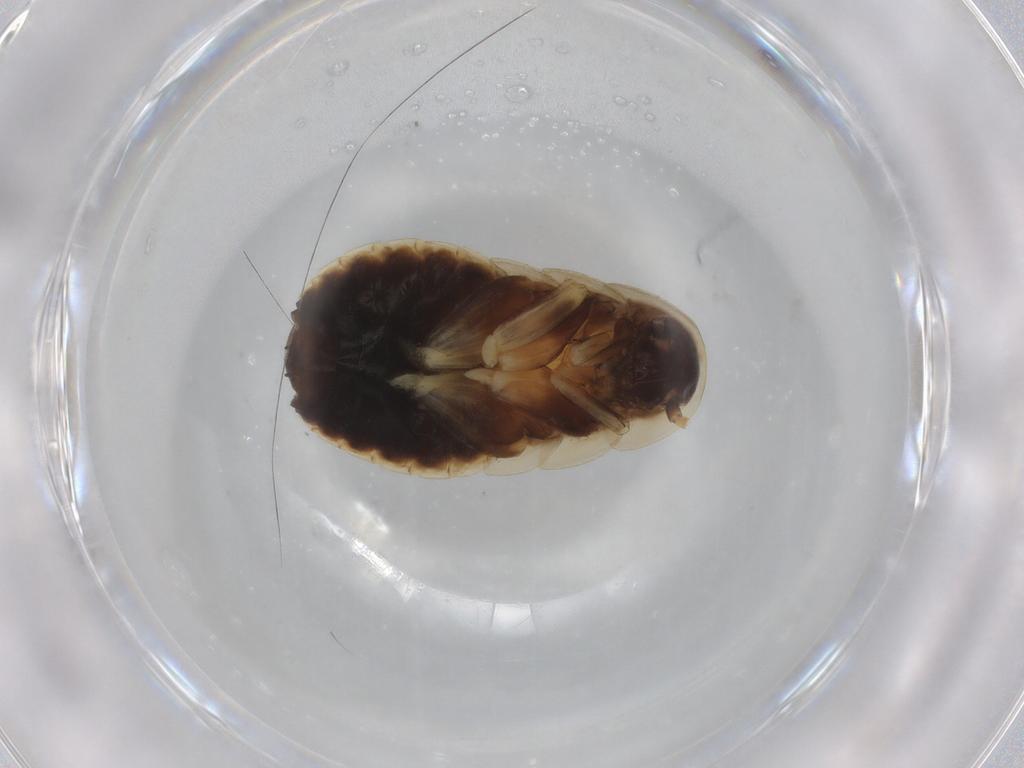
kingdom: Animalia
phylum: Arthropoda
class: Insecta
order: Blattodea
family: Ectobiidae
